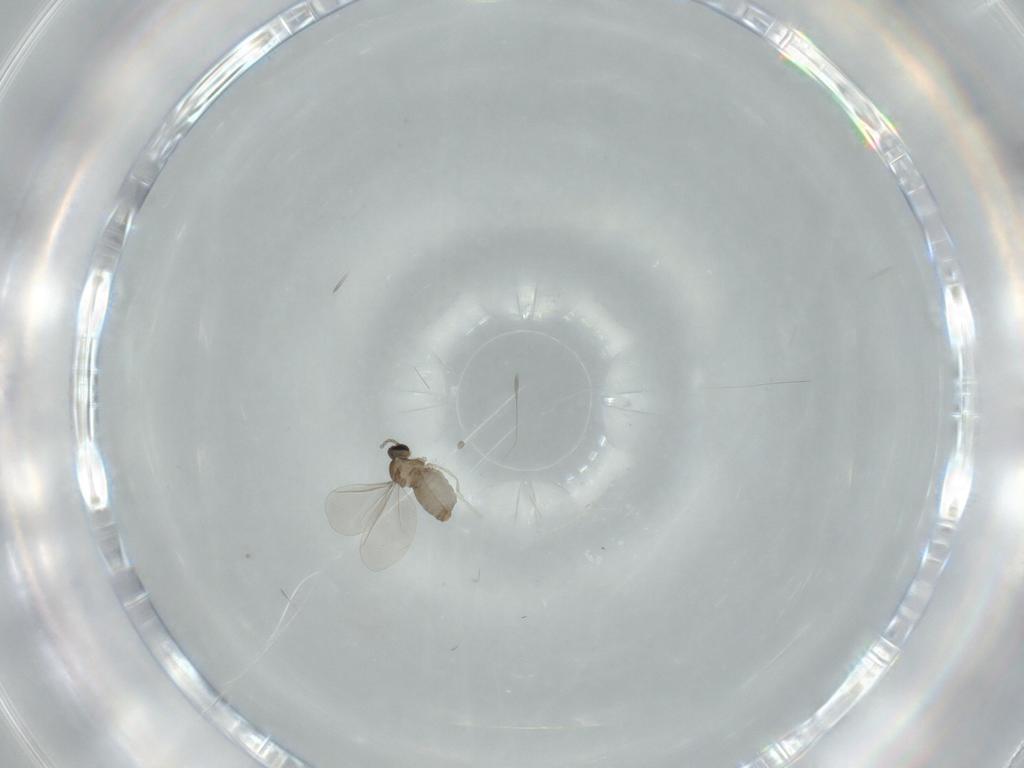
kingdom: Animalia
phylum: Arthropoda
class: Insecta
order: Diptera
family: Cecidomyiidae
